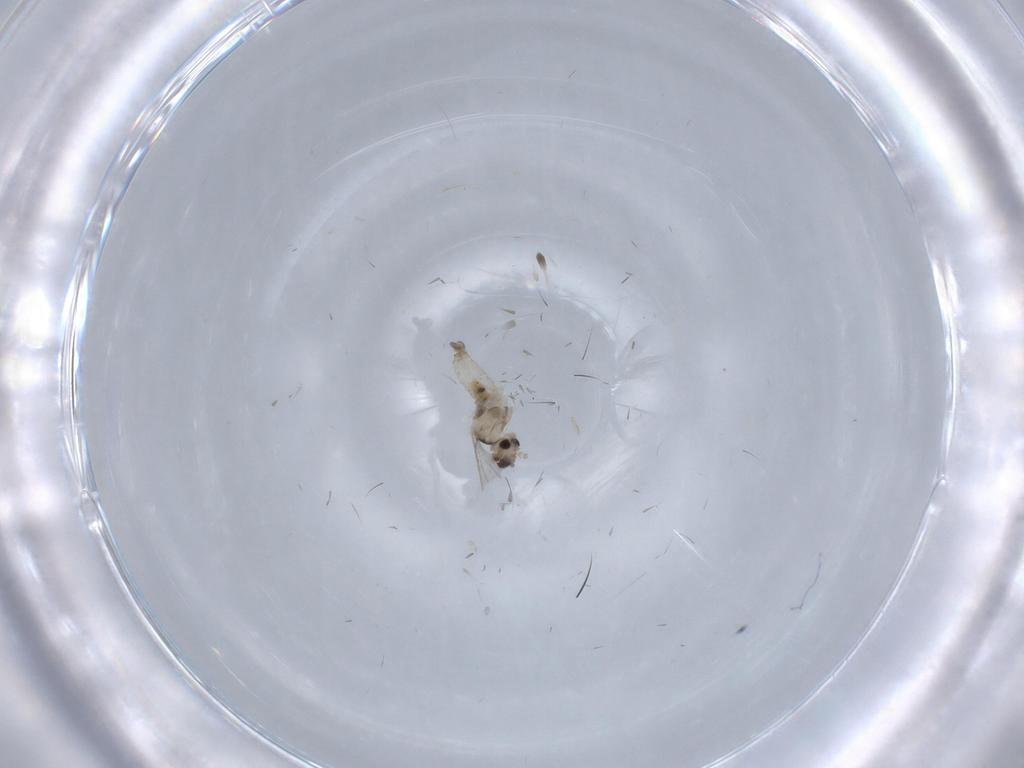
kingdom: Animalia
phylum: Arthropoda
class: Insecta
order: Diptera
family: Cecidomyiidae
